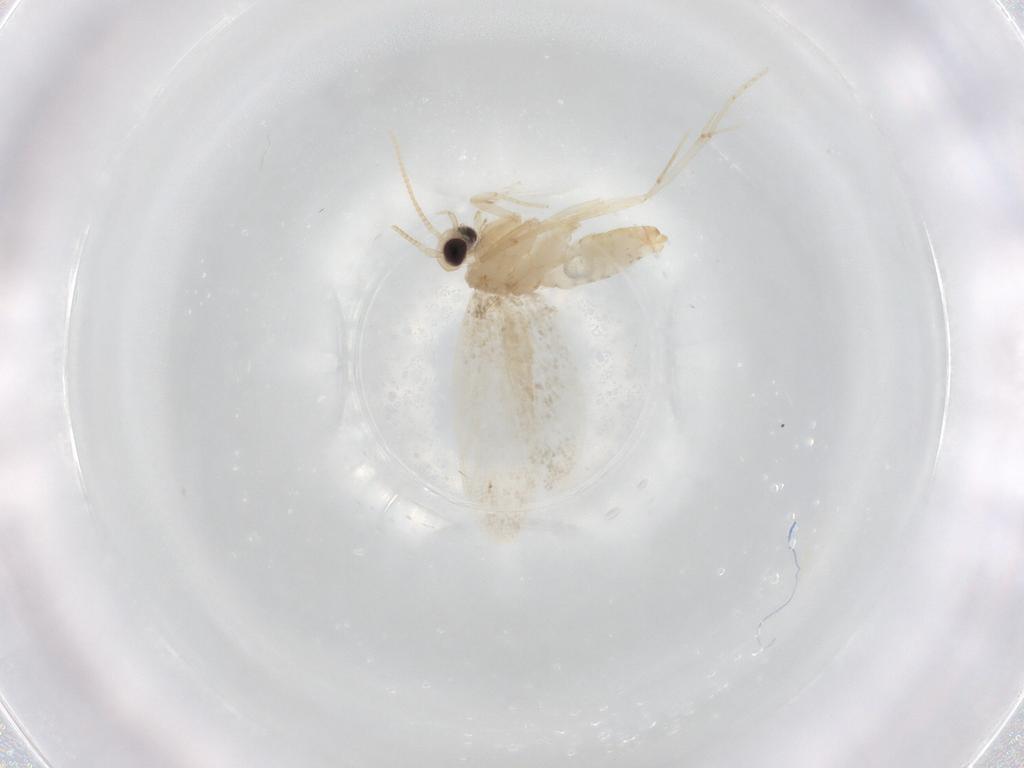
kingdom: Animalia
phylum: Arthropoda
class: Insecta
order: Lepidoptera
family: Psychidae
